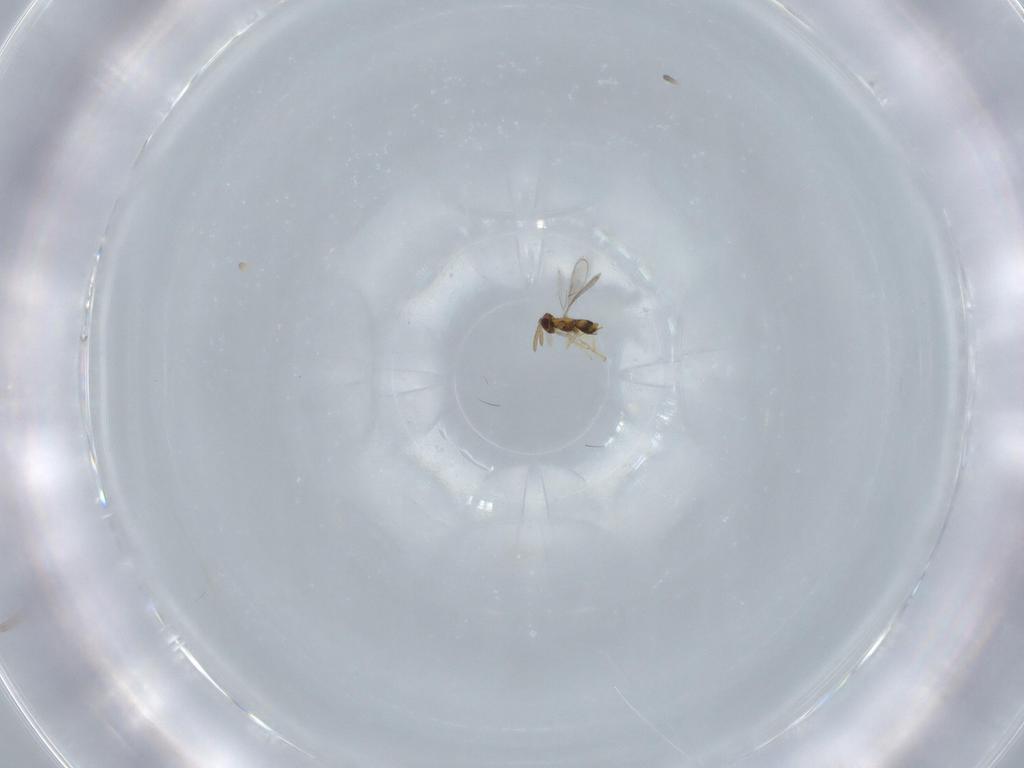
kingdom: Animalia
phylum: Arthropoda
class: Insecta
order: Hymenoptera
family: Aphelinidae
